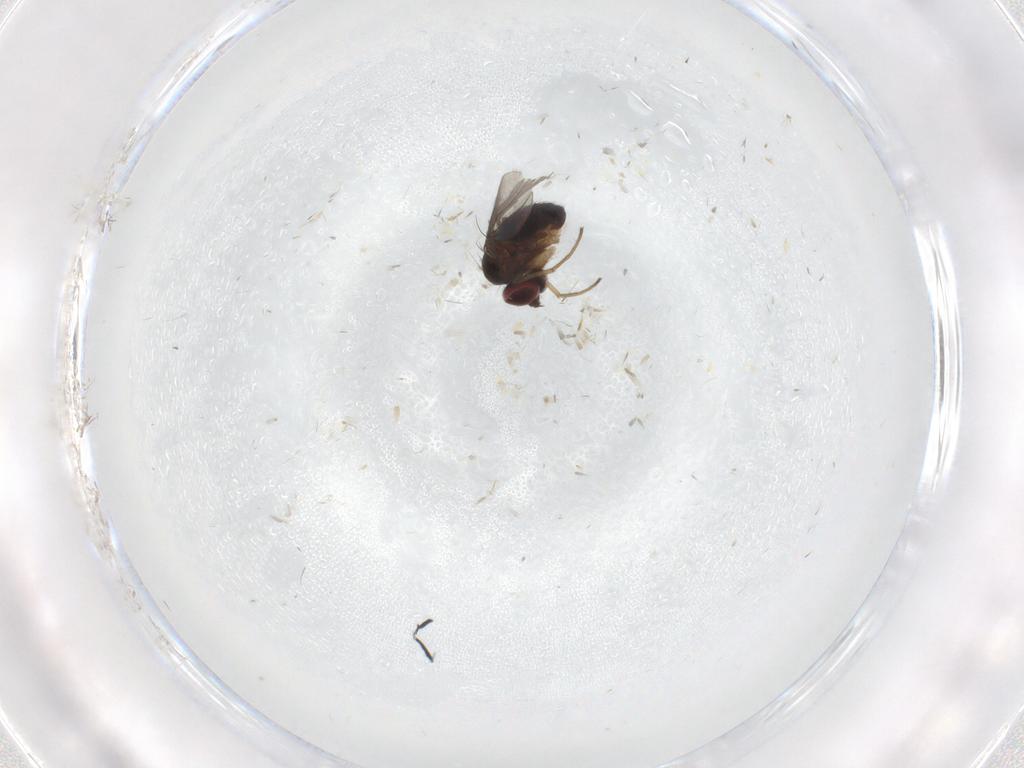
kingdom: Animalia
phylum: Arthropoda
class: Insecta
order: Diptera
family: Dolichopodidae
